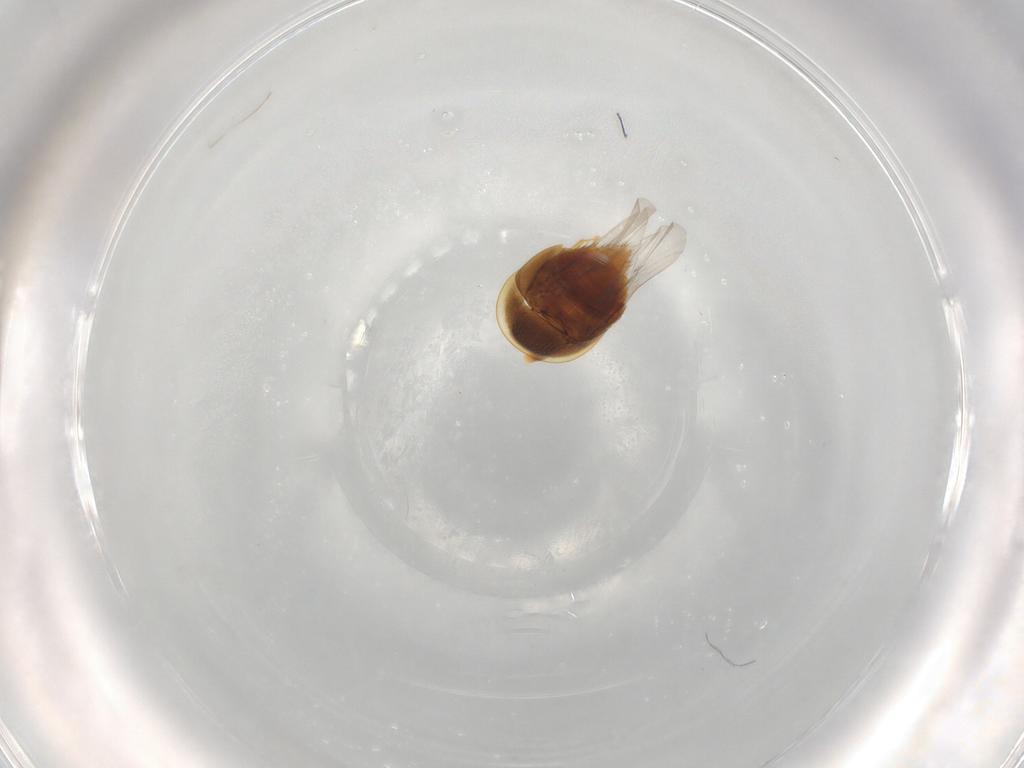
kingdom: Animalia
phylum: Arthropoda
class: Insecta
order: Coleoptera
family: Staphylinidae
